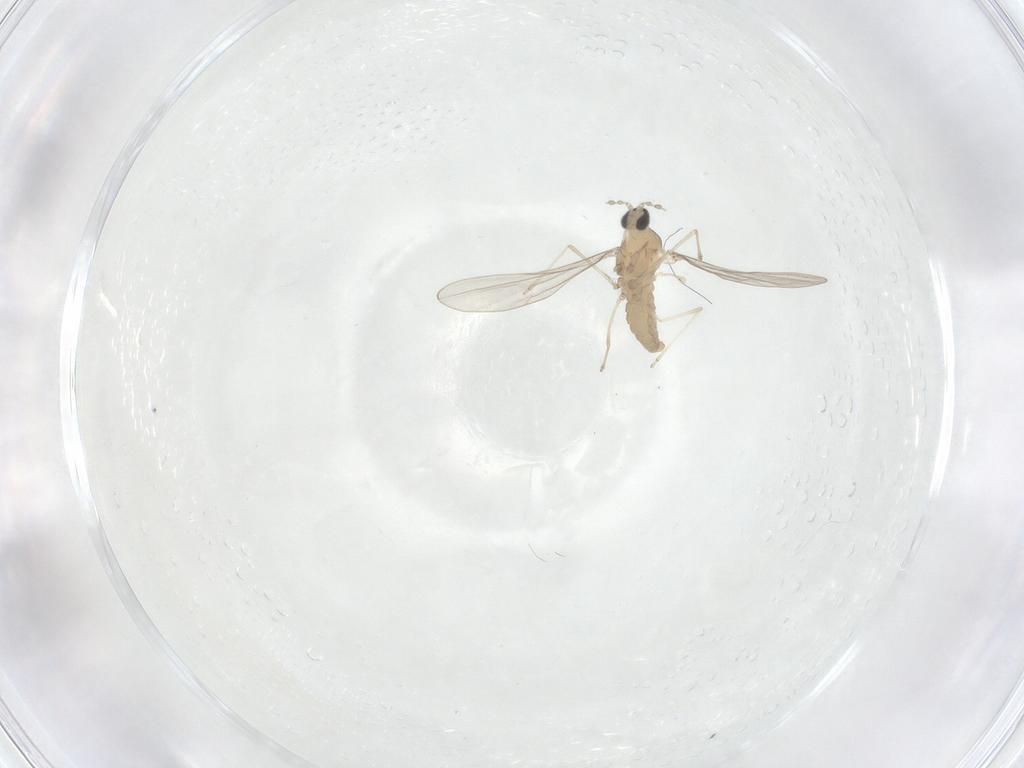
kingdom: Animalia
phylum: Arthropoda
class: Insecta
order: Diptera
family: Cecidomyiidae
